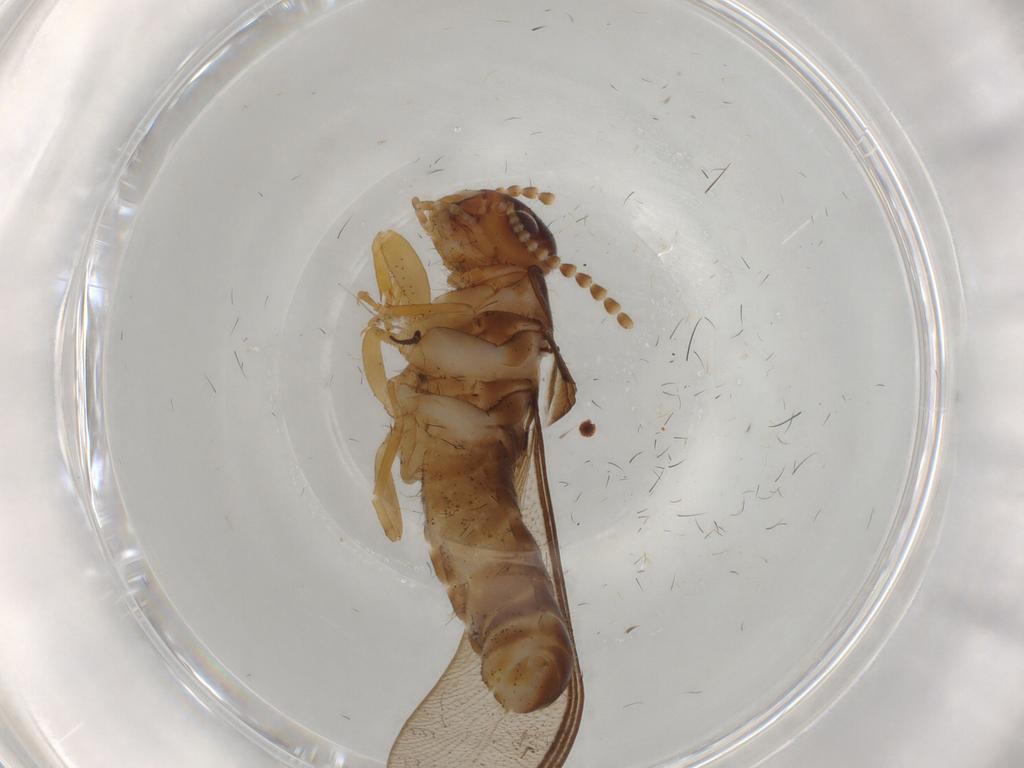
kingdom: Animalia
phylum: Arthropoda
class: Insecta
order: Blattodea
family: Kalotermitidae
